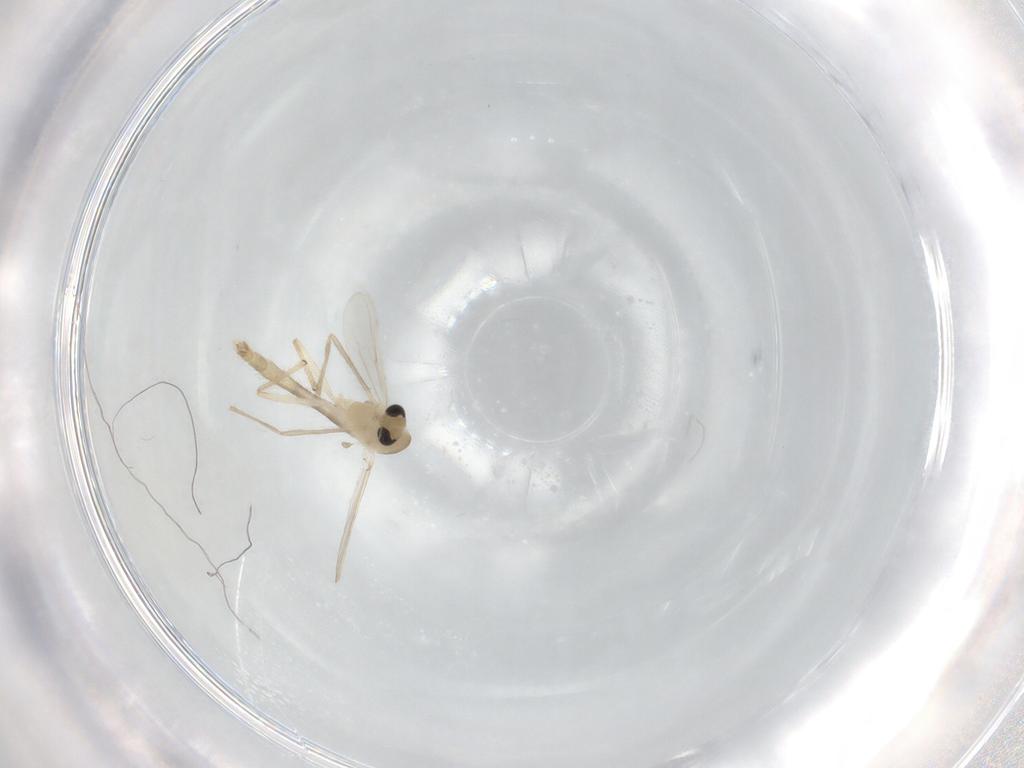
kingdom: Animalia
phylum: Arthropoda
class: Insecta
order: Diptera
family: Chironomidae
